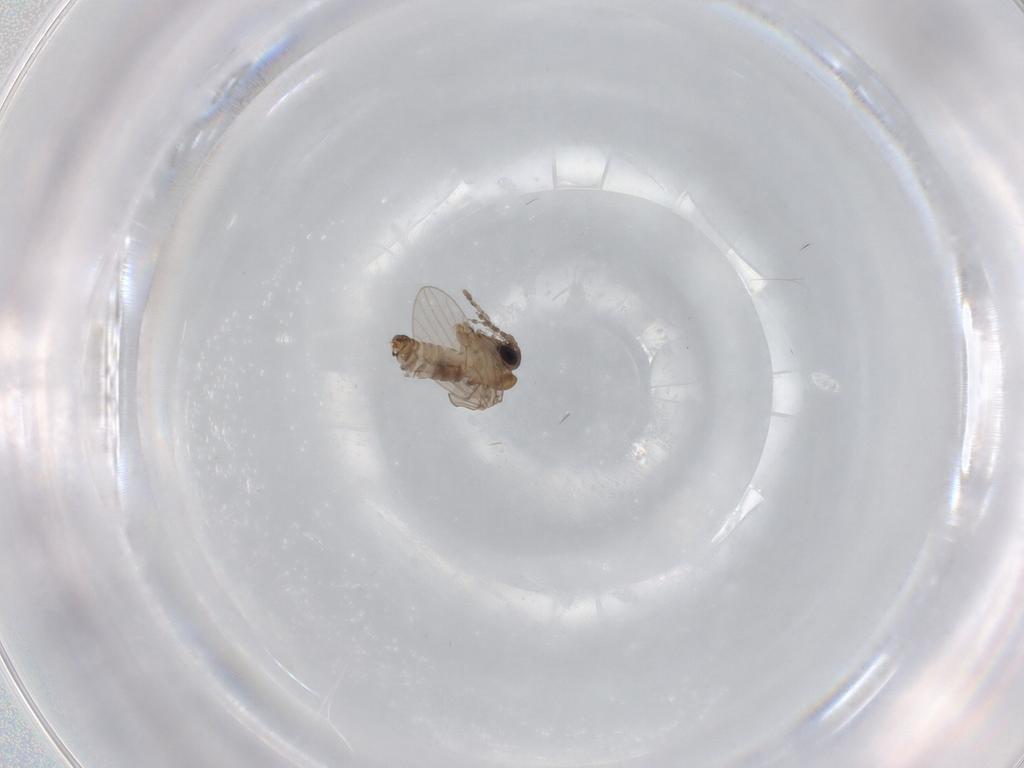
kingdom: Animalia
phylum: Arthropoda
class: Insecta
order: Diptera
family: Psychodidae
